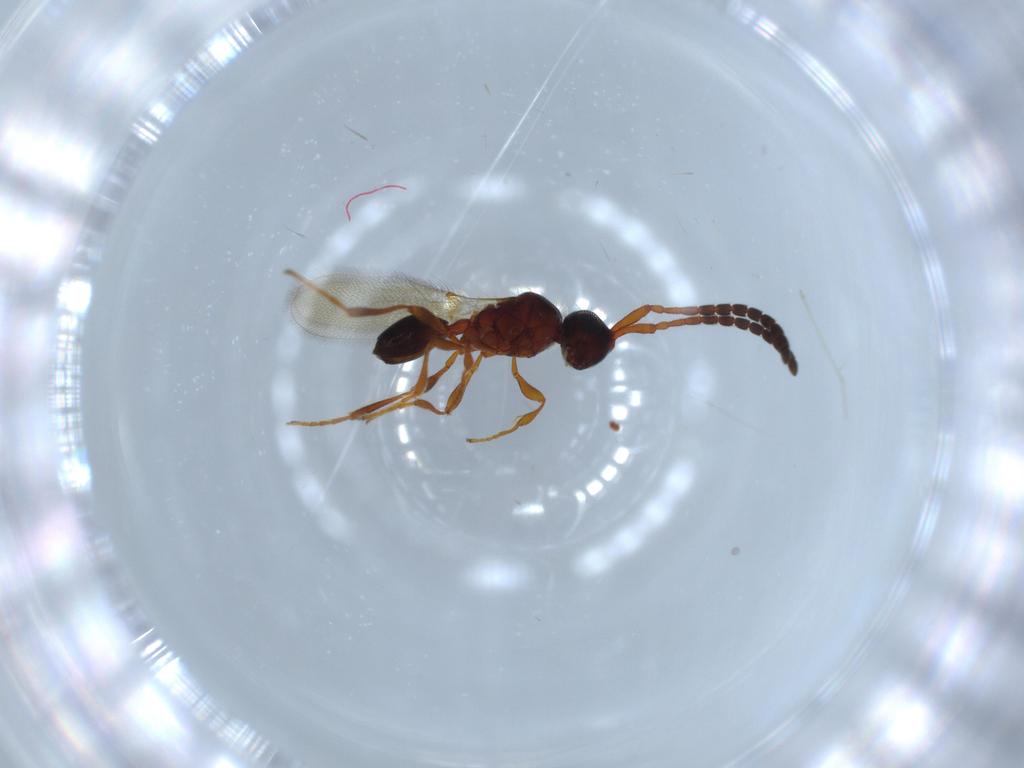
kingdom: Animalia
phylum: Arthropoda
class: Insecta
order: Hymenoptera
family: Diapriidae
